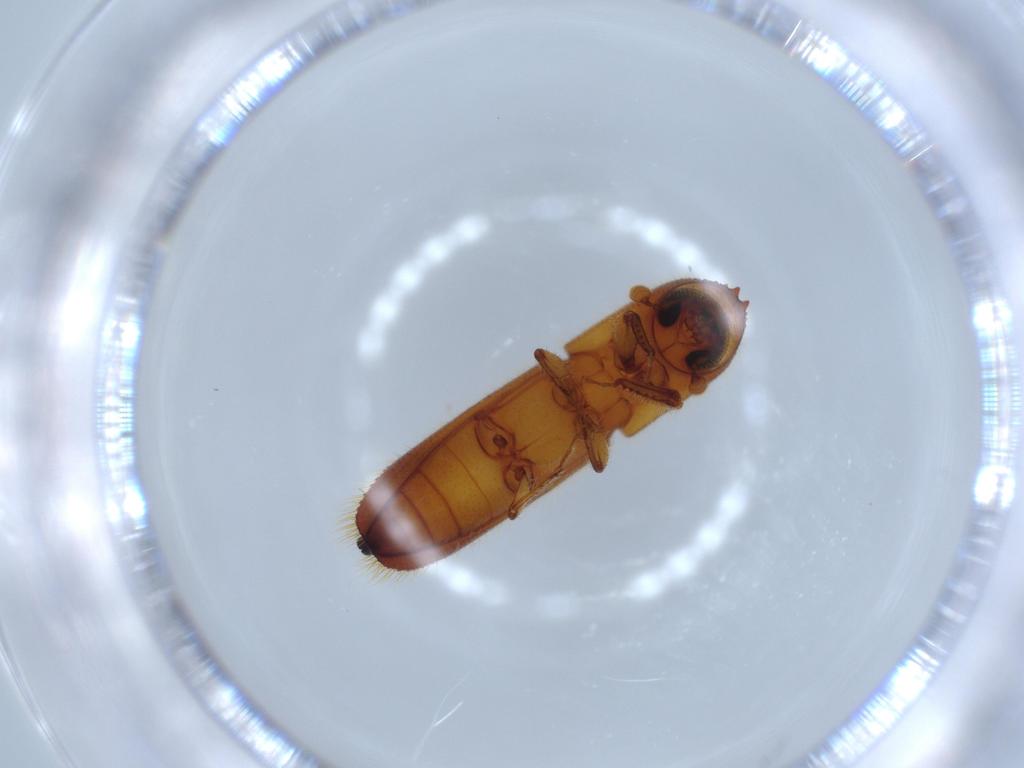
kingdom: Animalia
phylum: Arthropoda
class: Insecta
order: Coleoptera
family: Curculionidae
